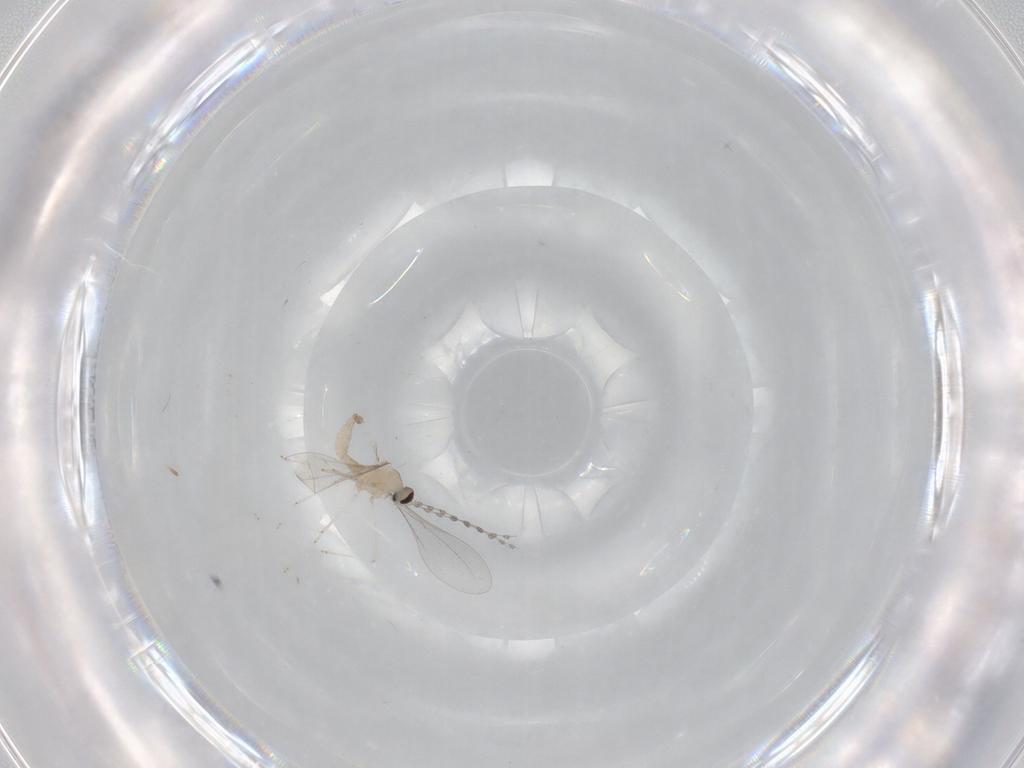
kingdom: Animalia
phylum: Arthropoda
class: Insecta
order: Diptera
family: Cecidomyiidae
